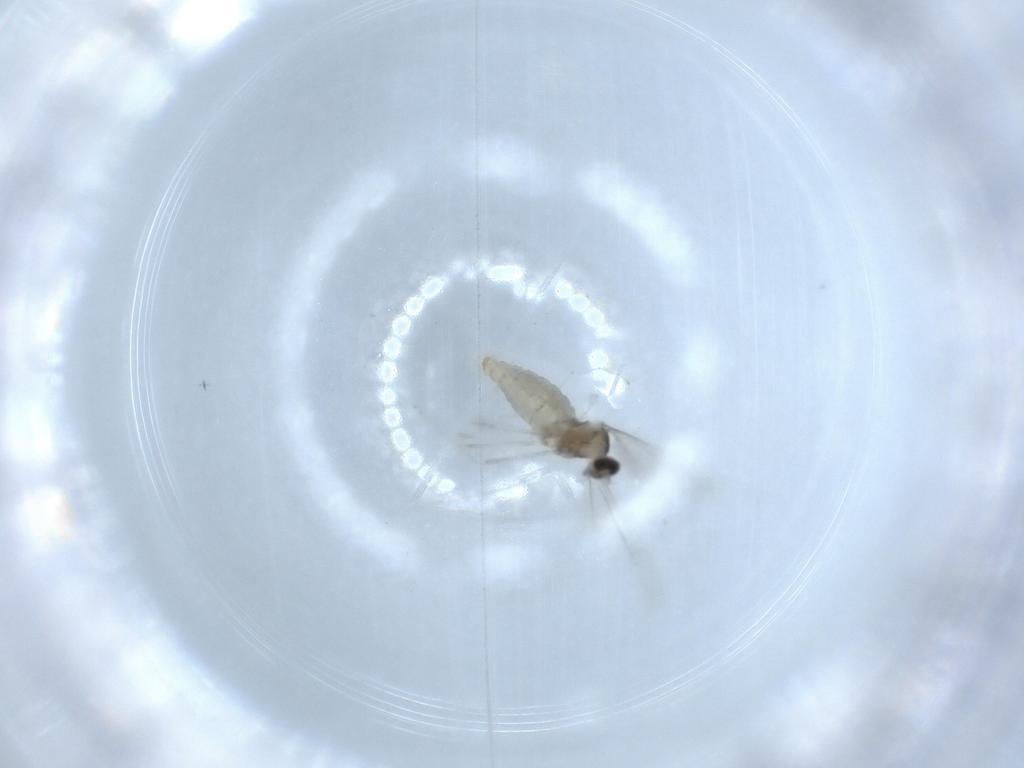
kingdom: Animalia
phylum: Arthropoda
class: Insecta
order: Diptera
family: Cecidomyiidae
